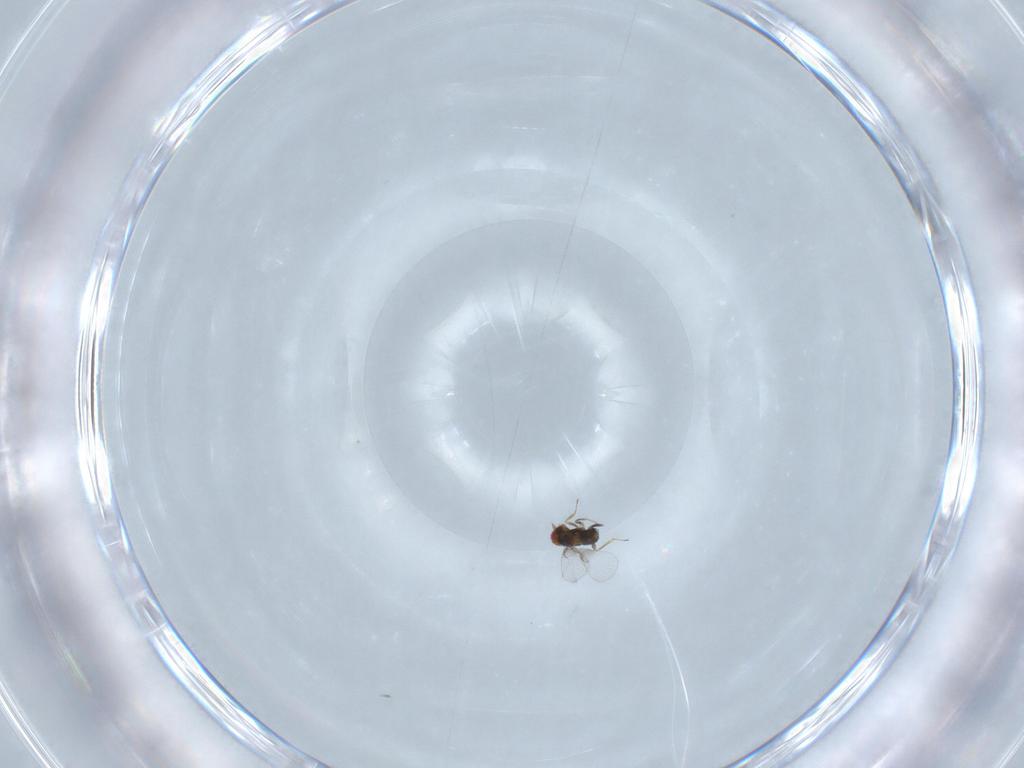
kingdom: Animalia
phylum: Arthropoda
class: Insecta
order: Hymenoptera
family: Trichogrammatidae
